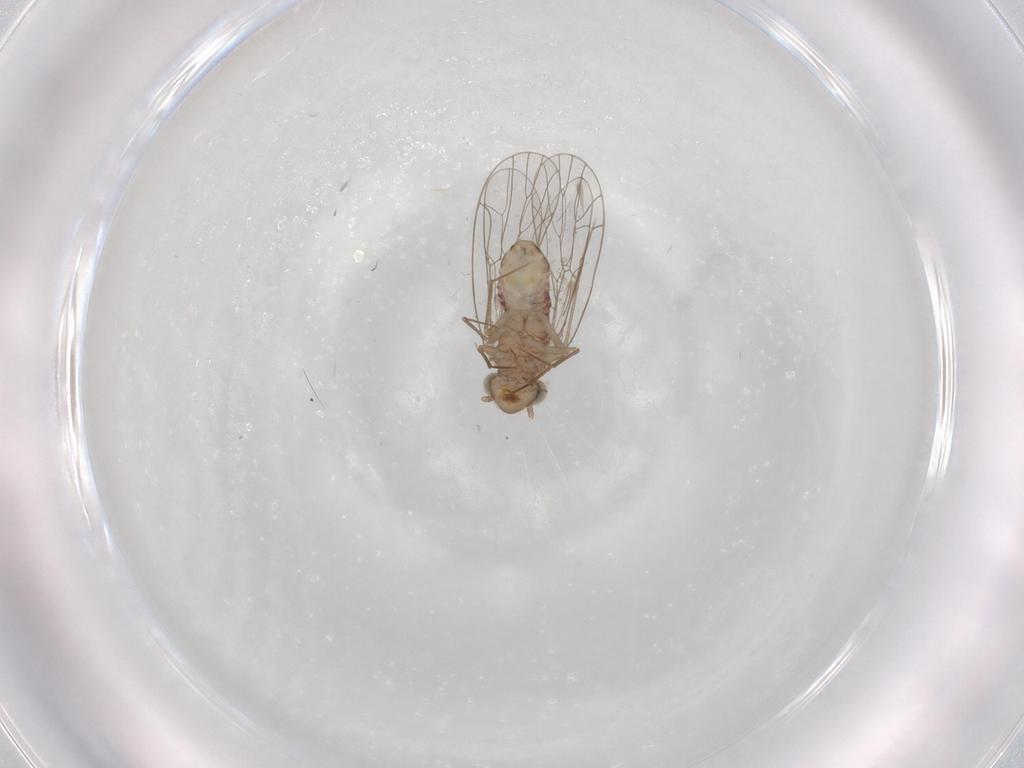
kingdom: Animalia
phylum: Arthropoda
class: Insecta
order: Psocodea
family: Amphientomidae
